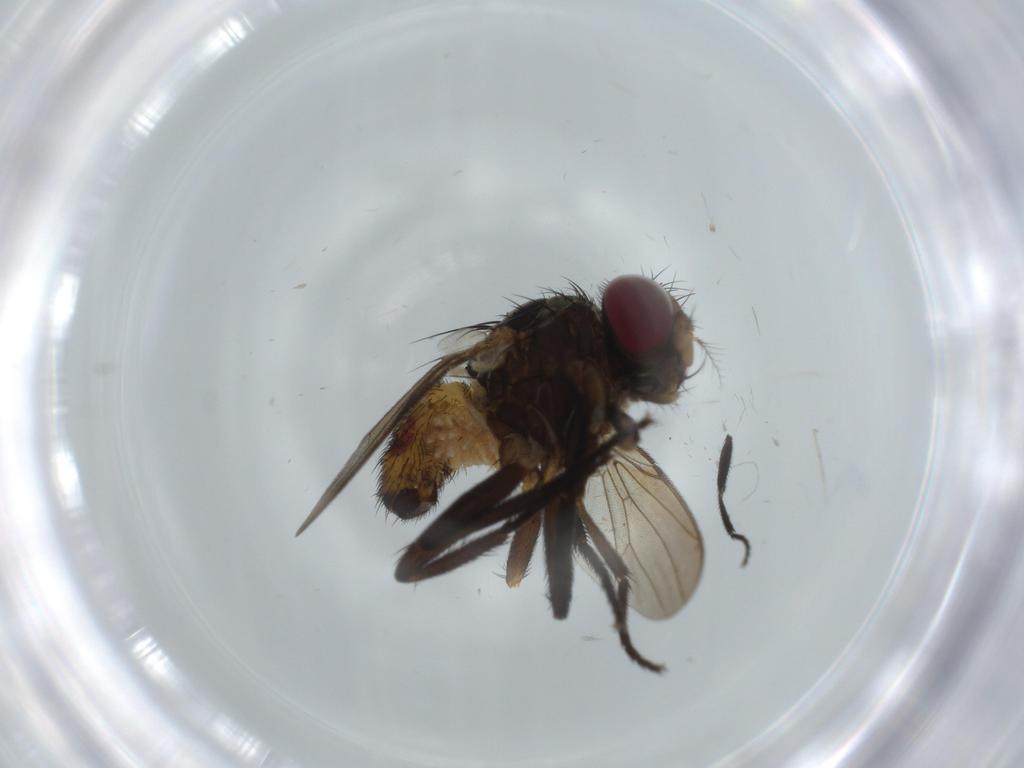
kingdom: Animalia
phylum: Arthropoda
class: Insecta
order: Diptera
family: Anthomyiidae
